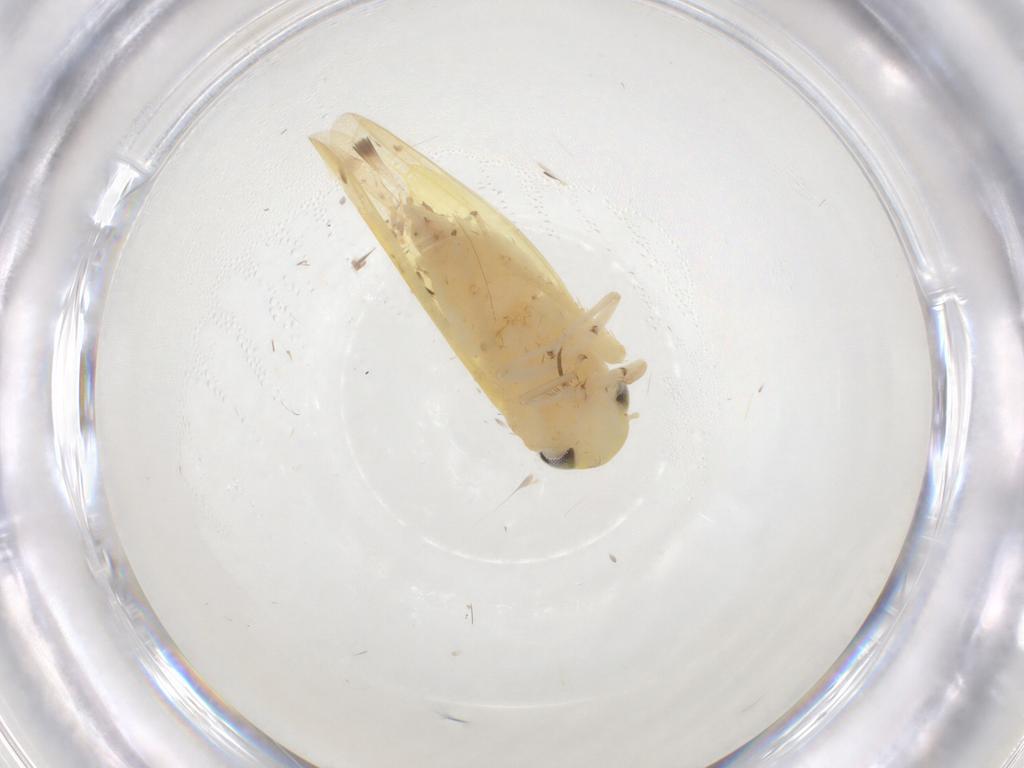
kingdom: Animalia
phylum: Arthropoda
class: Insecta
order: Hemiptera
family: Cicadellidae
